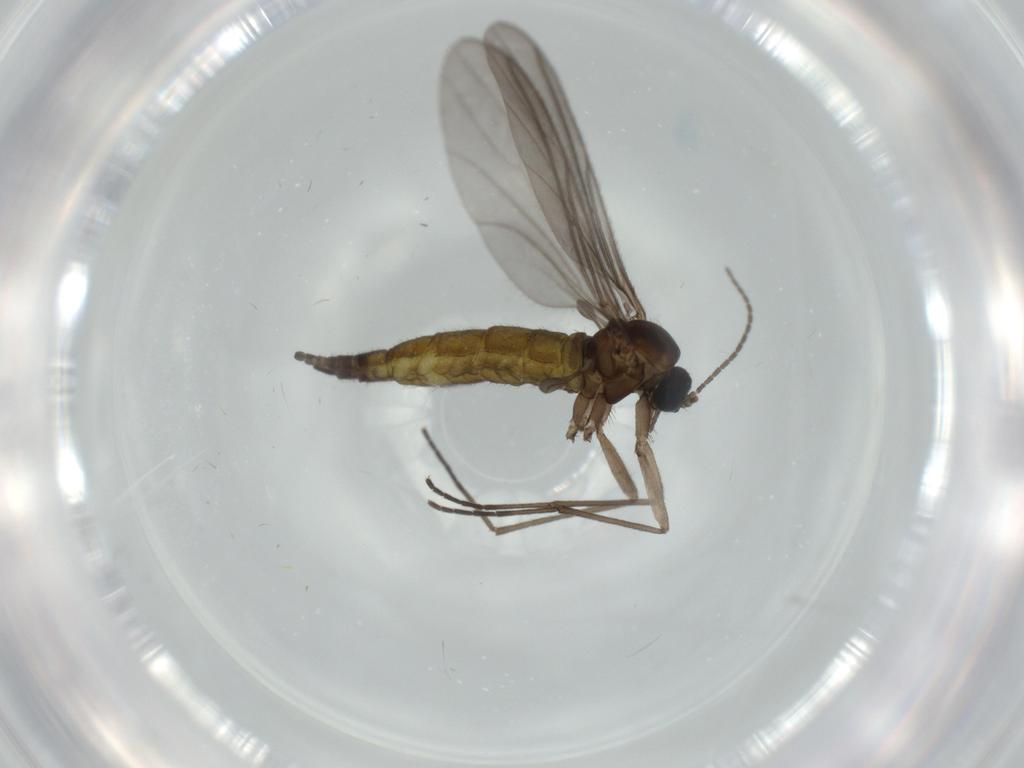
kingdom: Animalia
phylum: Arthropoda
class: Insecta
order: Diptera
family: Sciaridae
